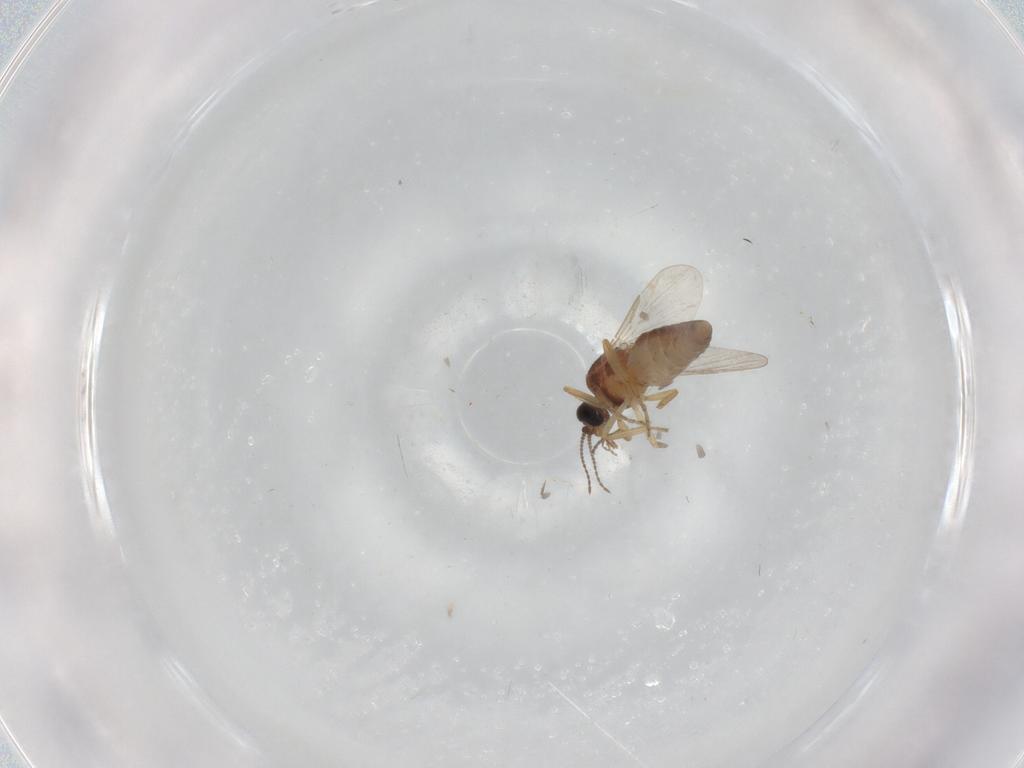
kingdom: Animalia
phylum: Arthropoda
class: Insecta
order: Diptera
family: Ceratopogonidae
